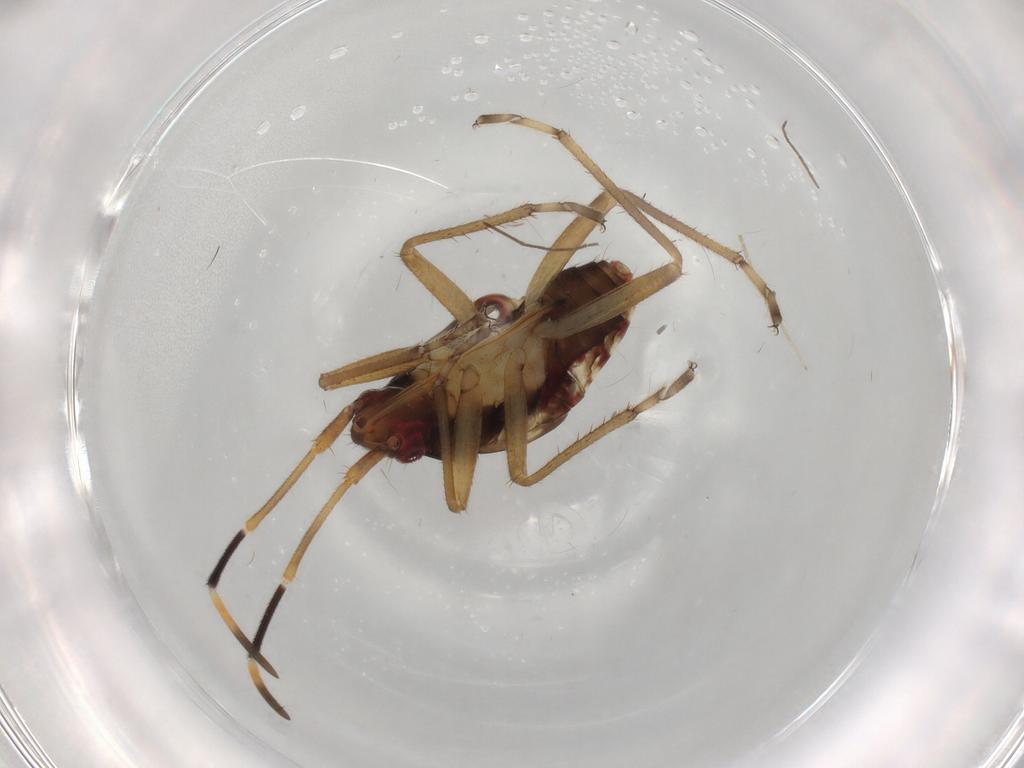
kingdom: Animalia
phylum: Arthropoda
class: Insecta
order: Hemiptera
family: Rhyparochromidae
